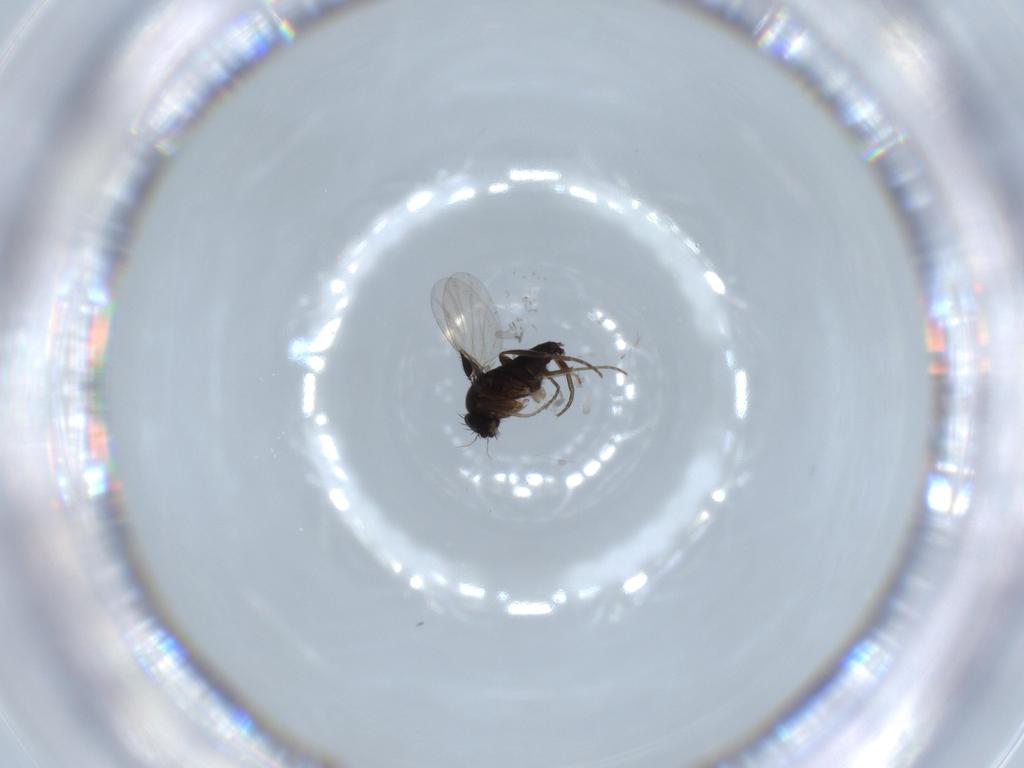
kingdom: Animalia
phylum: Arthropoda
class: Insecta
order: Diptera
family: Phoridae
